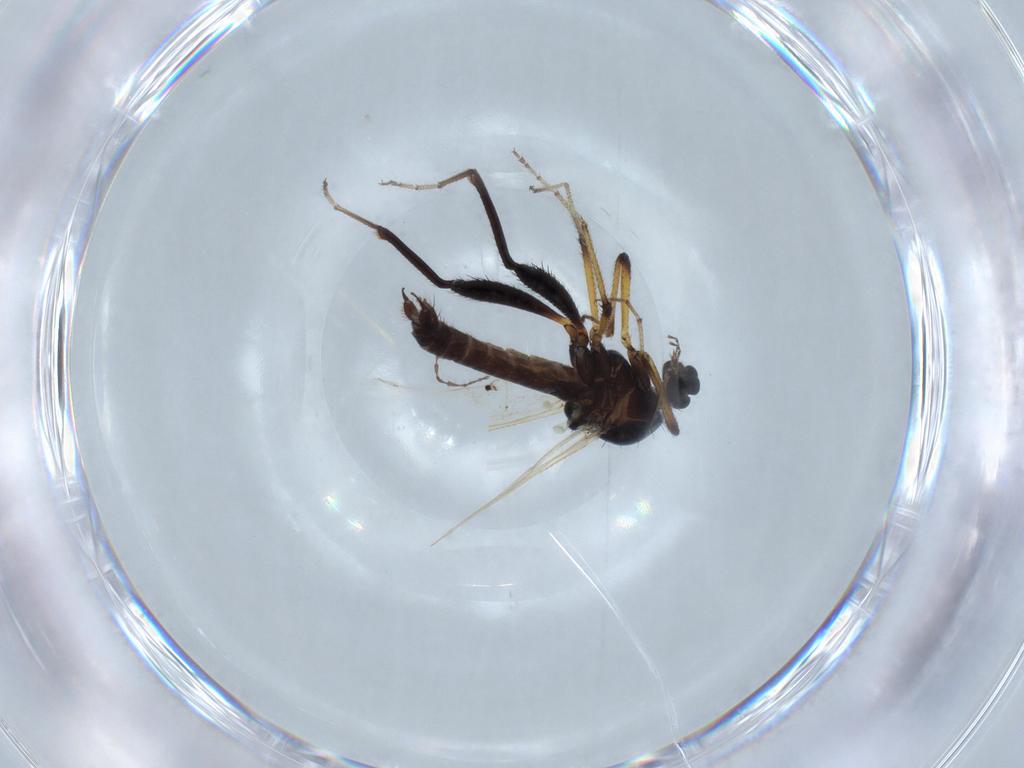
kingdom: Animalia
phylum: Arthropoda
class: Insecta
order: Diptera
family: Ceratopogonidae
